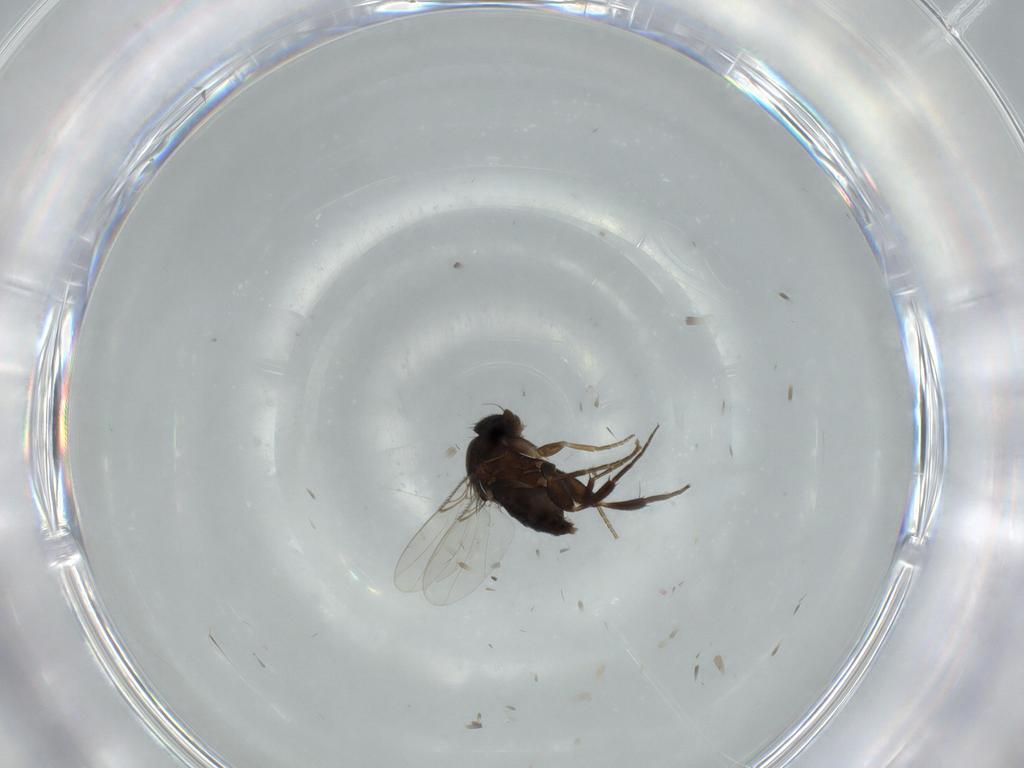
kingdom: Animalia
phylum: Arthropoda
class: Insecta
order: Diptera
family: Phoridae
